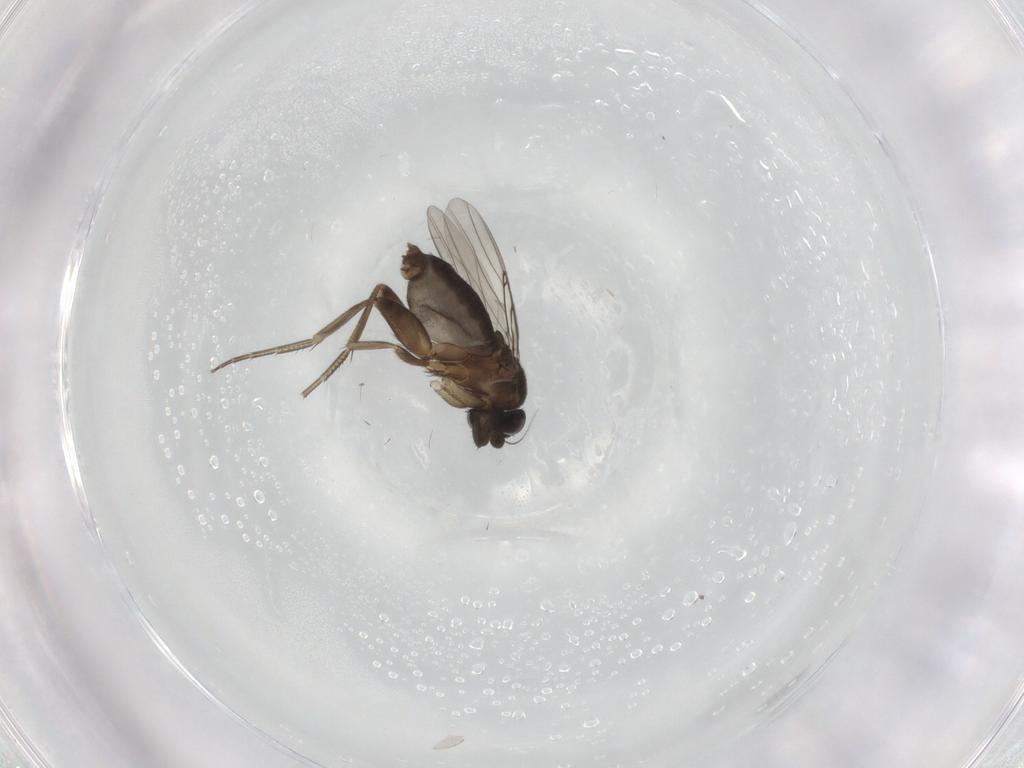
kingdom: Animalia
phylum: Arthropoda
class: Insecta
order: Diptera
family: Phoridae
